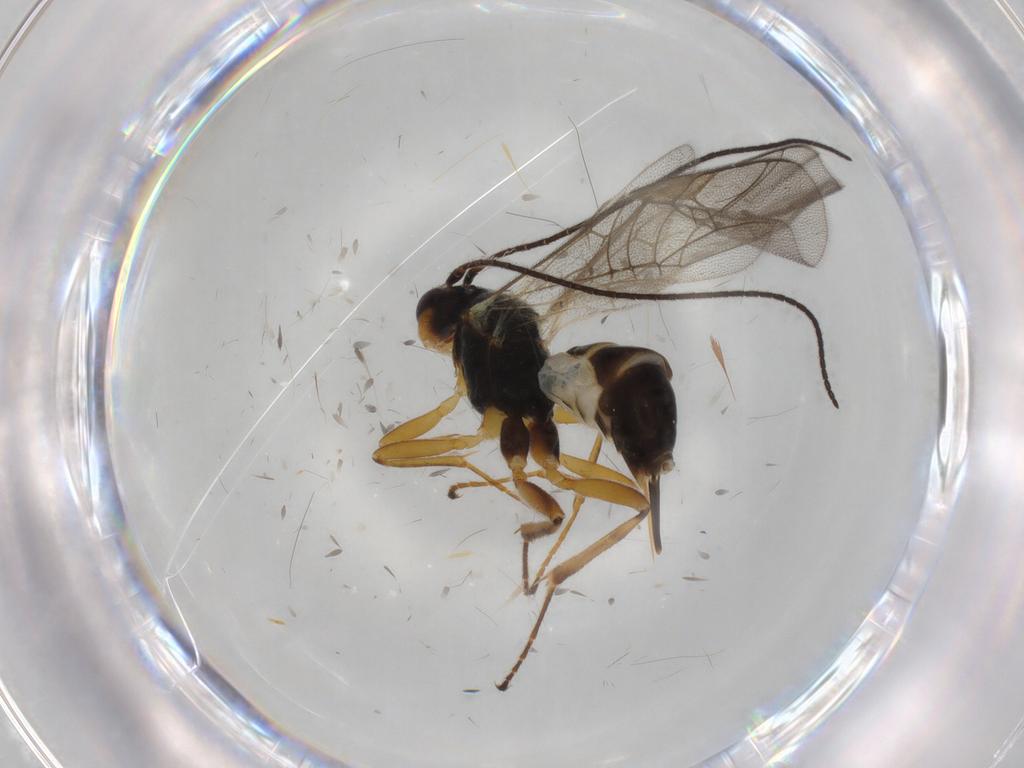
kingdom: Animalia
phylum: Arthropoda
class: Insecta
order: Hymenoptera
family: Ichneumonidae
